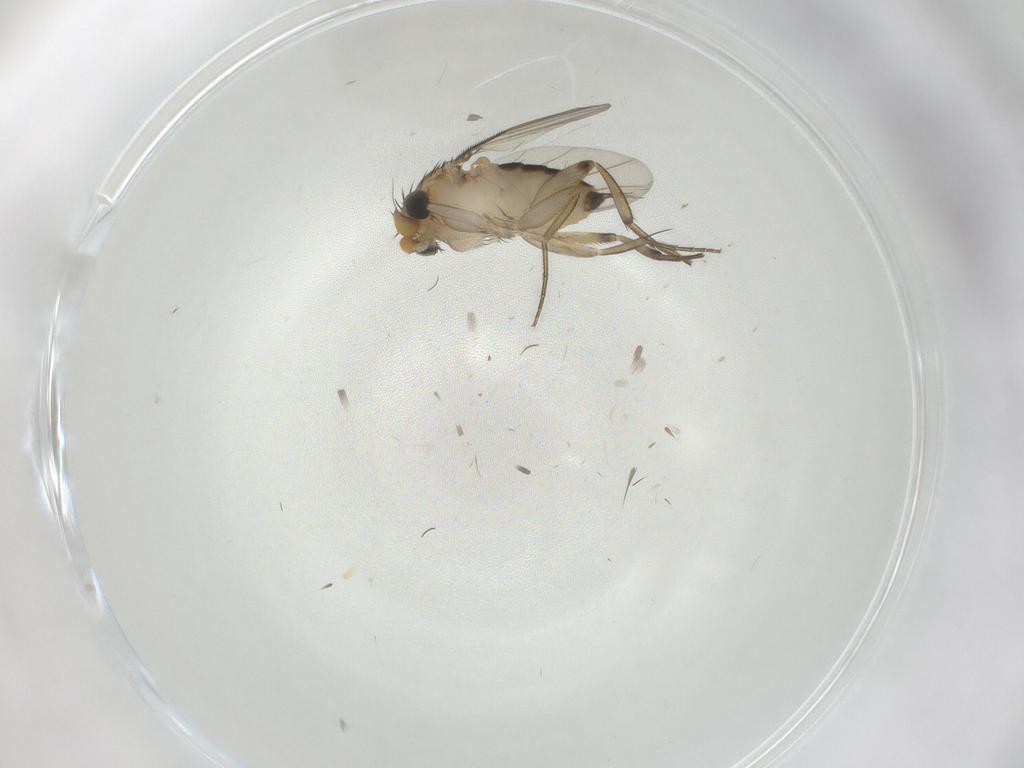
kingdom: Animalia
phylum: Arthropoda
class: Insecta
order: Diptera
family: Phoridae
